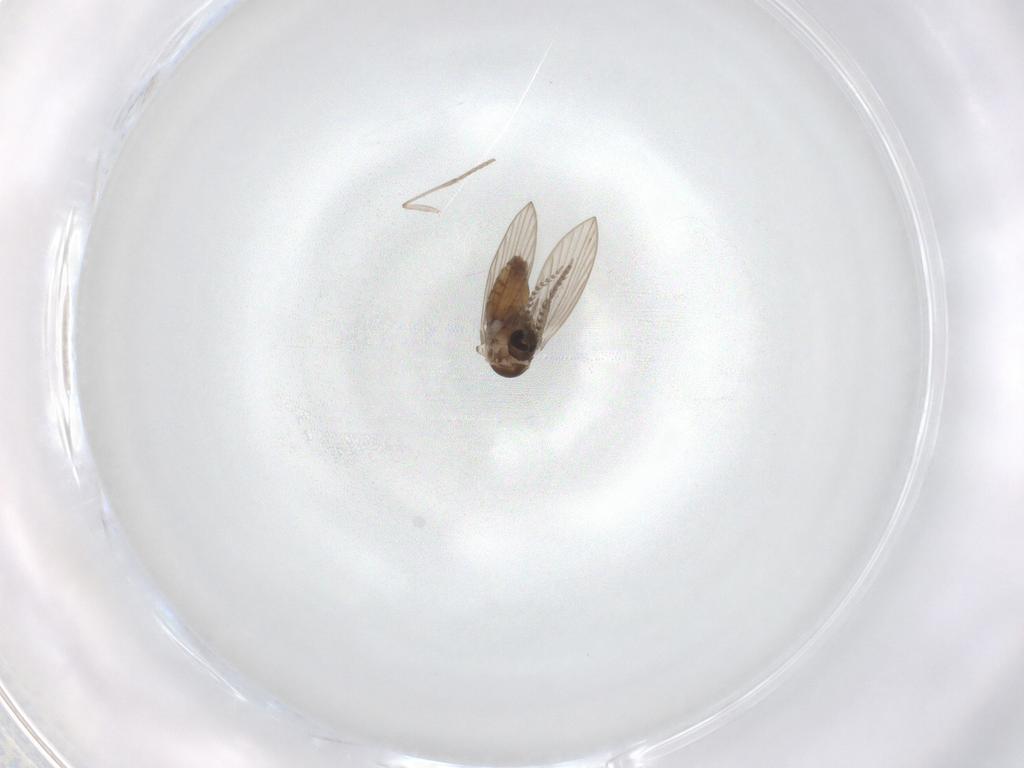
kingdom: Animalia
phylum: Arthropoda
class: Insecta
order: Diptera
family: Psychodidae
